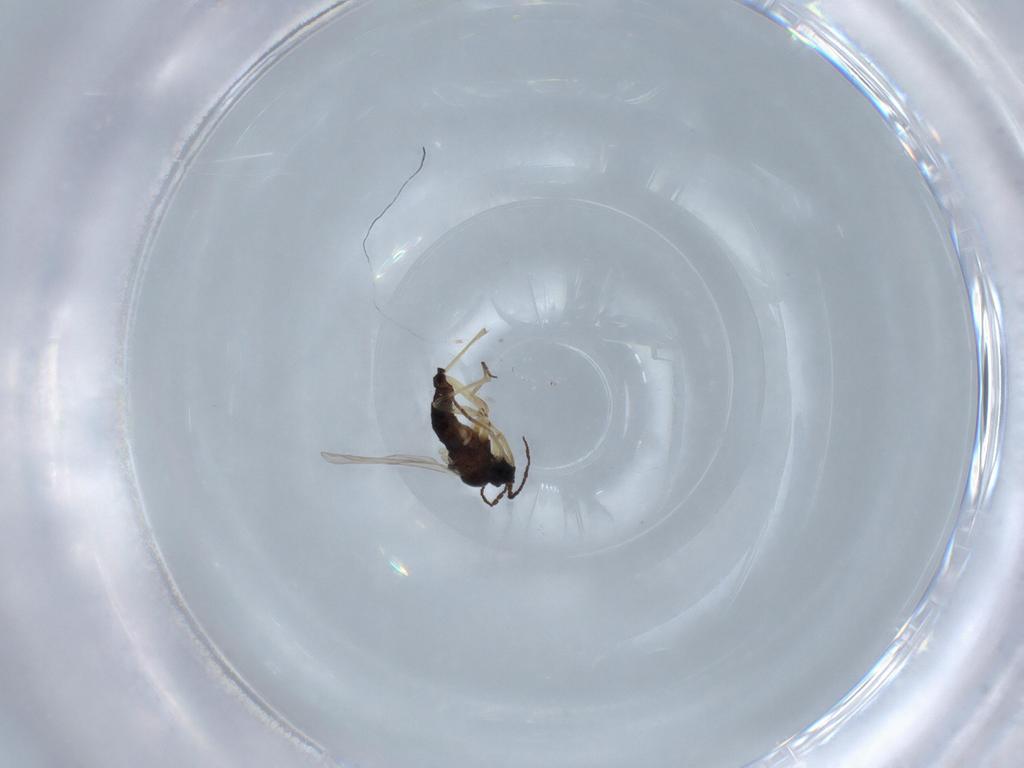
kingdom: Animalia
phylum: Arthropoda
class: Insecta
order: Diptera
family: Sciaridae
